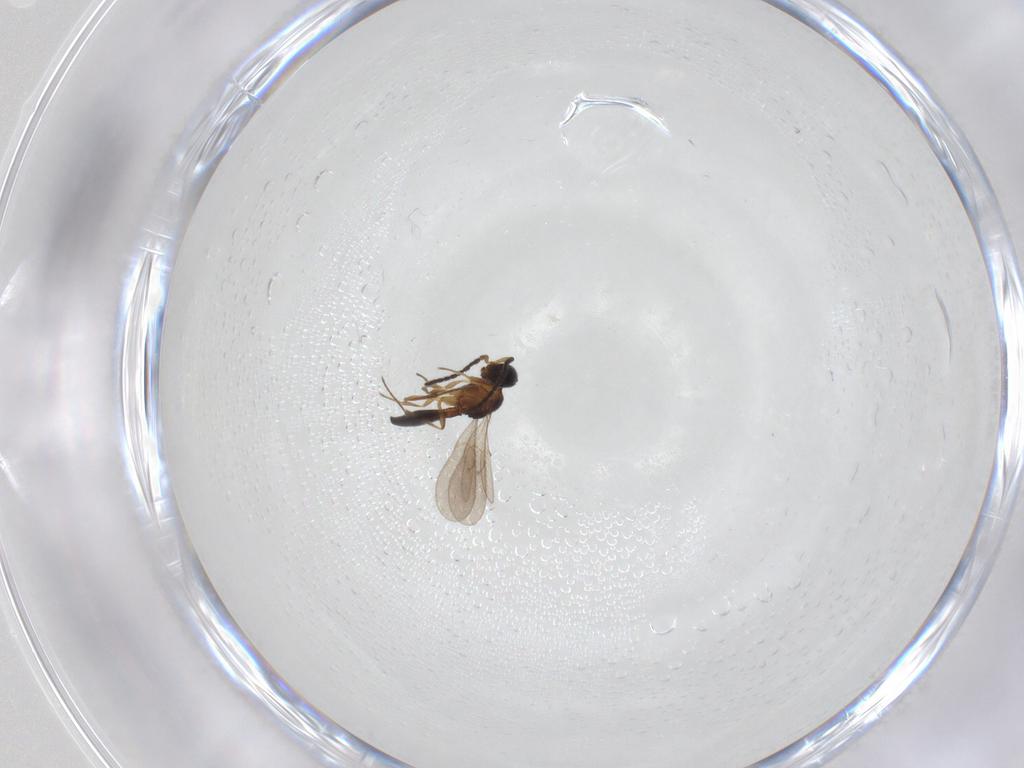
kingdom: Animalia
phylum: Arthropoda
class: Insecta
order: Hymenoptera
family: Scelionidae
